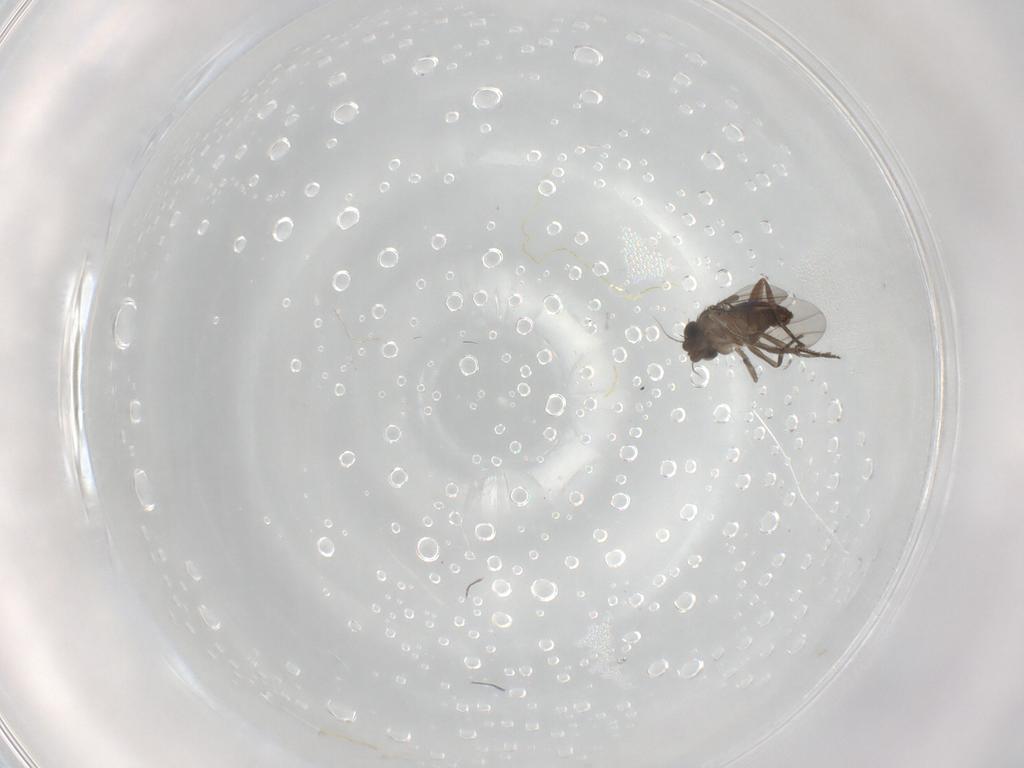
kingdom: Animalia
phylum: Arthropoda
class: Insecta
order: Diptera
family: Phoridae
